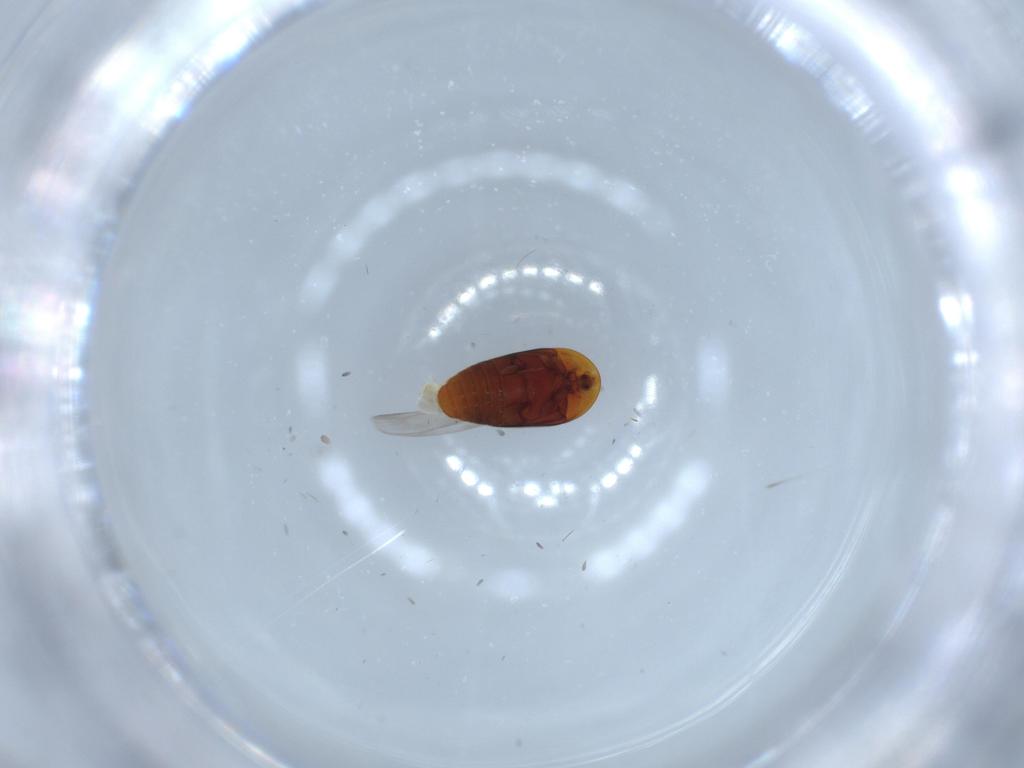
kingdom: Animalia
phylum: Arthropoda
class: Insecta
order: Coleoptera
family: Corylophidae
